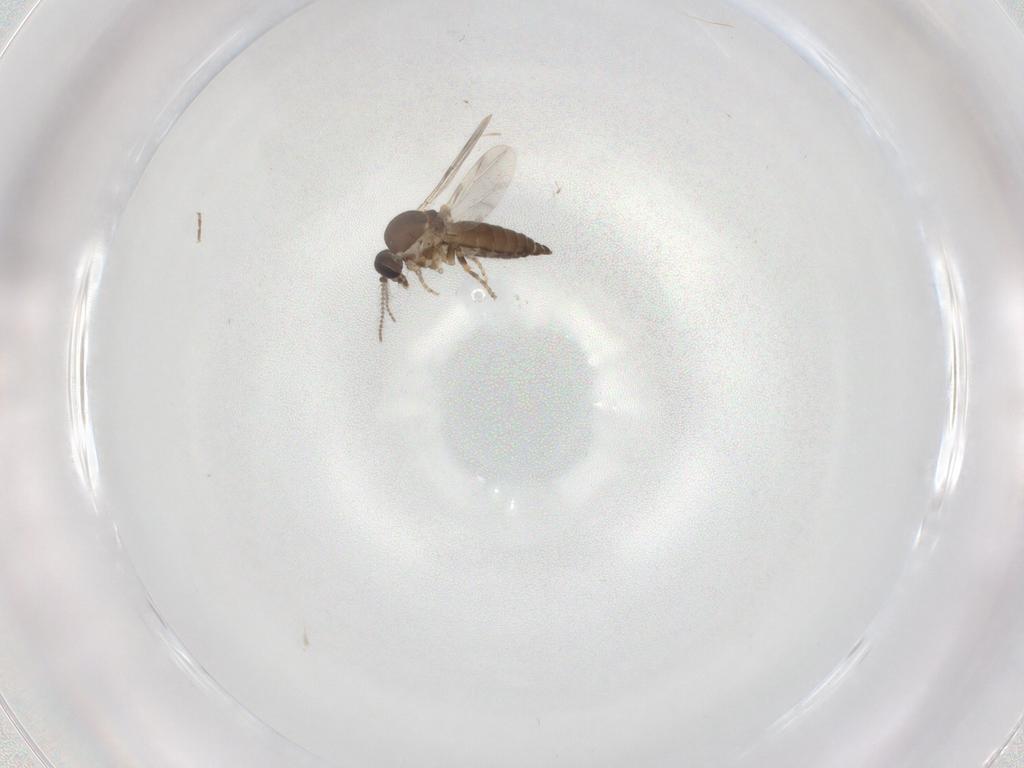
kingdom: Animalia
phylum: Arthropoda
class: Insecta
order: Diptera
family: Ceratopogonidae
